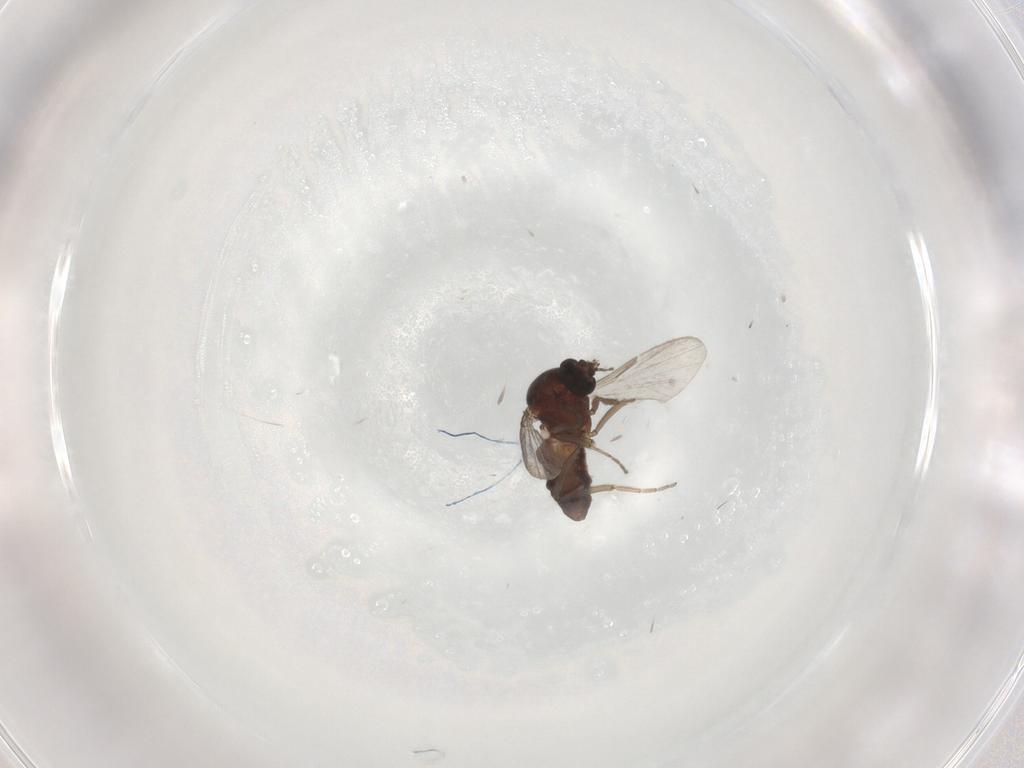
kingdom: Animalia
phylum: Arthropoda
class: Insecta
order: Diptera
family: Ceratopogonidae
